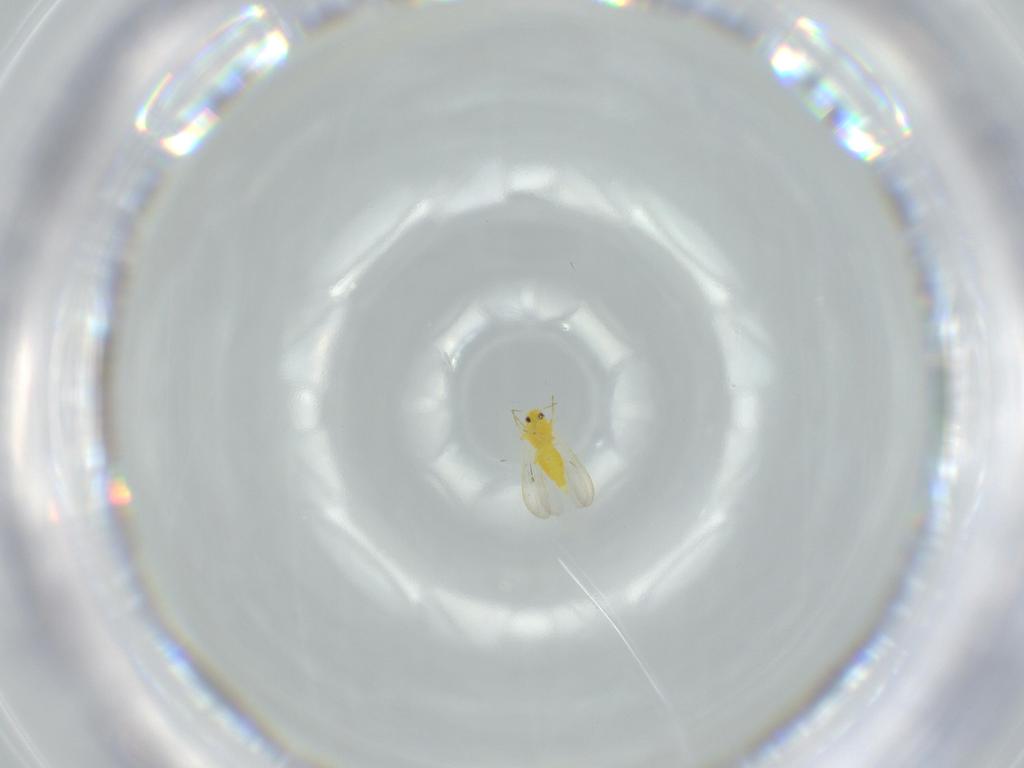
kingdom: Animalia
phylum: Arthropoda
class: Insecta
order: Hemiptera
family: Aleyrodidae
